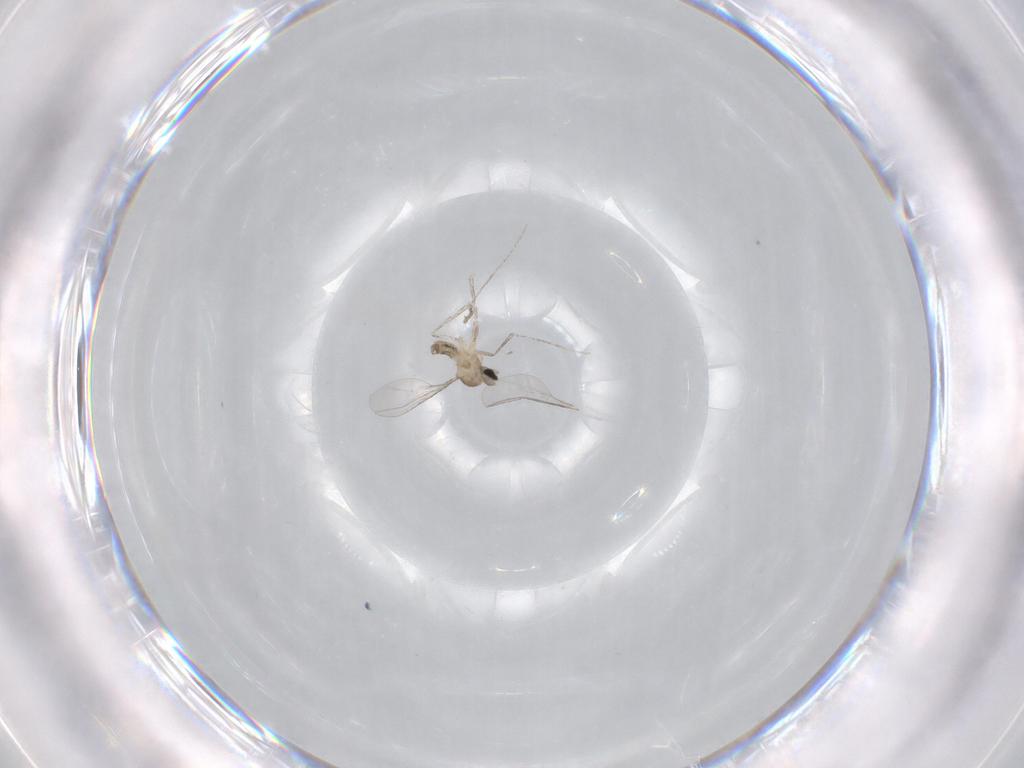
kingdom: Animalia
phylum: Arthropoda
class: Insecta
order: Diptera
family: Cecidomyiidae
